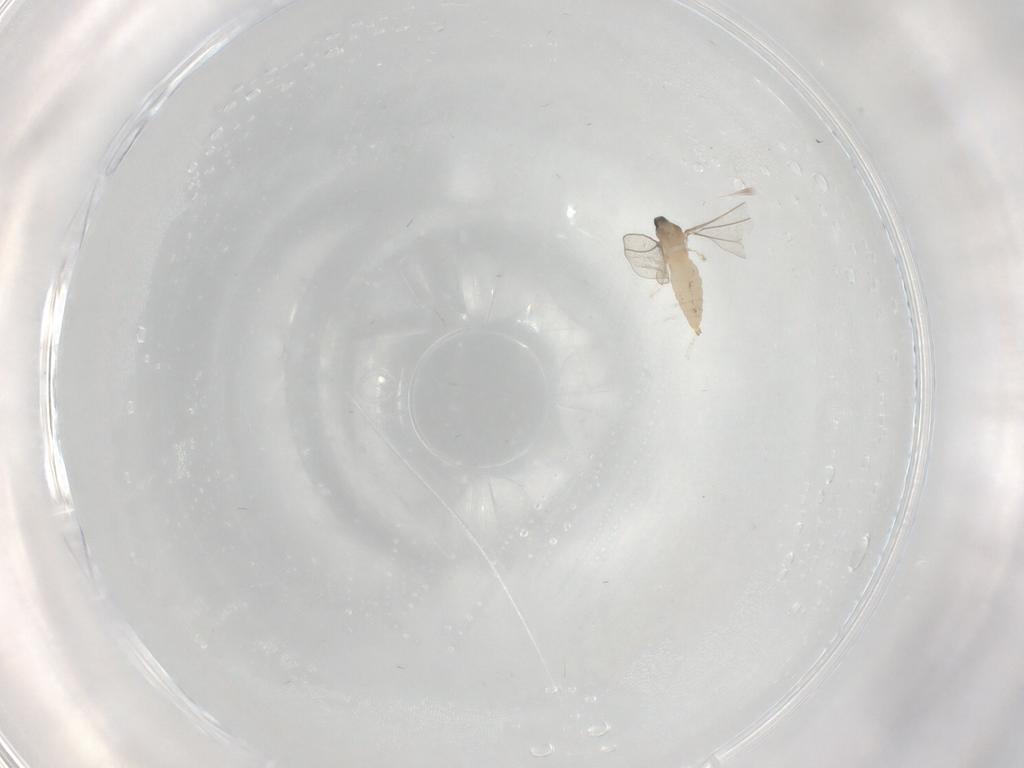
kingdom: Animalia
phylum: Arthropoda
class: Insecta
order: Diptera
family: Cecidomyiidae
